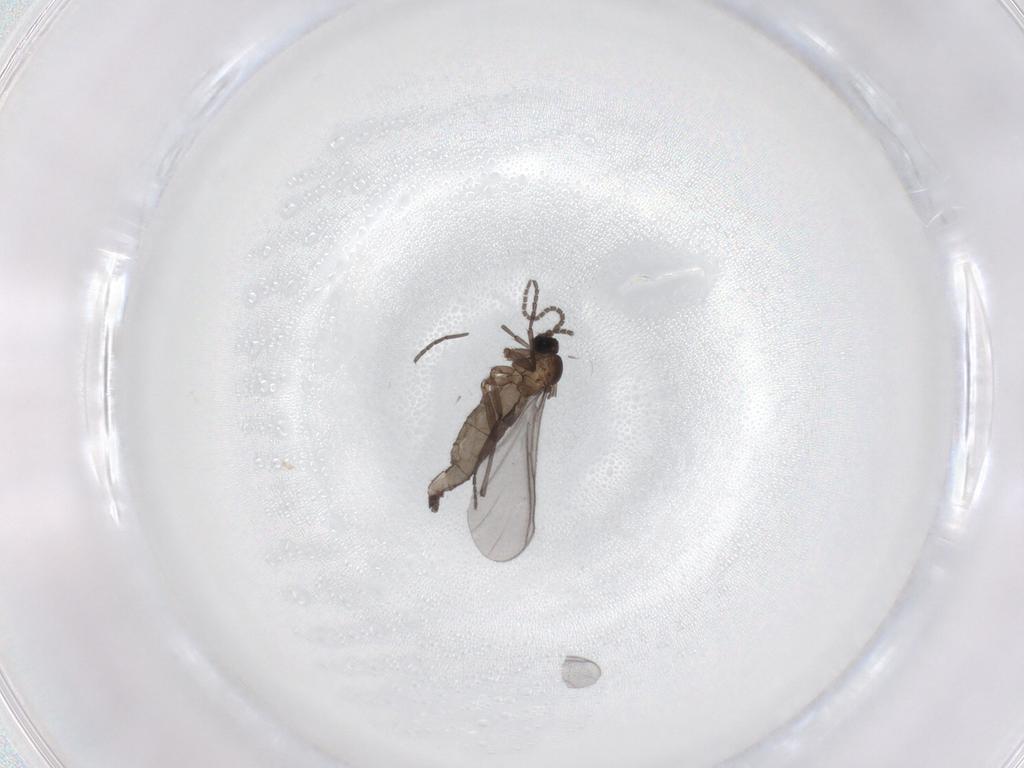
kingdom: Animalia
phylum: Arthropoda
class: Insecta
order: Diptera
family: Sciaridae
